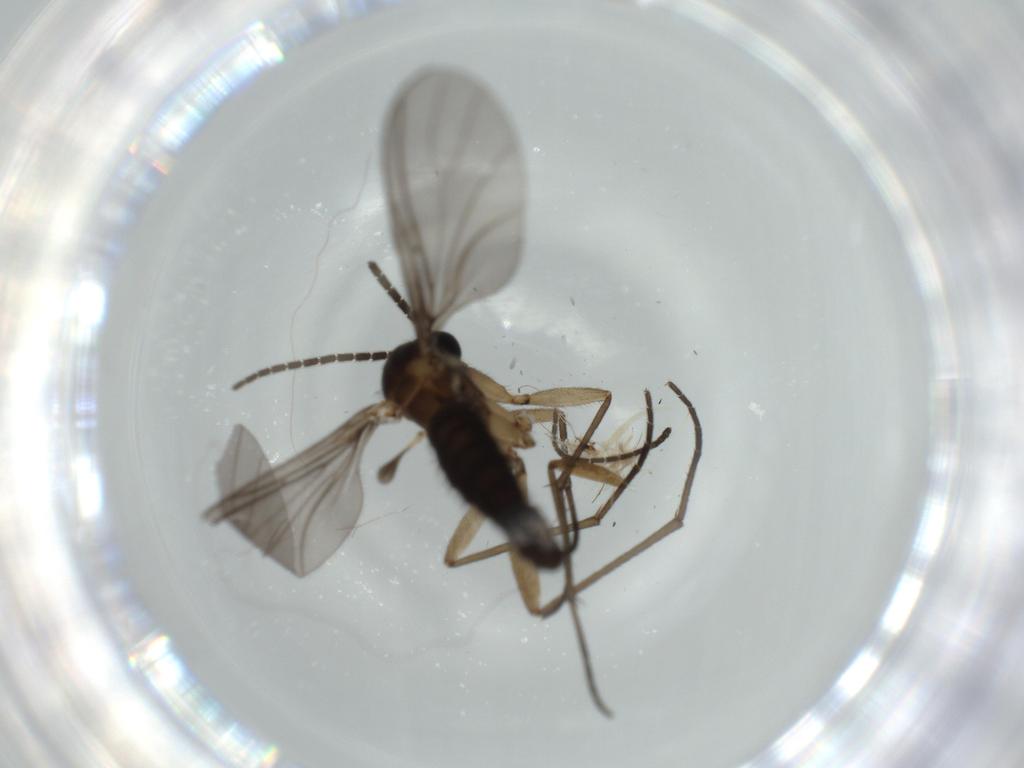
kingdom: Animalia
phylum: Arthropoda
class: Insecta
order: Diptera
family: Sciaridae
